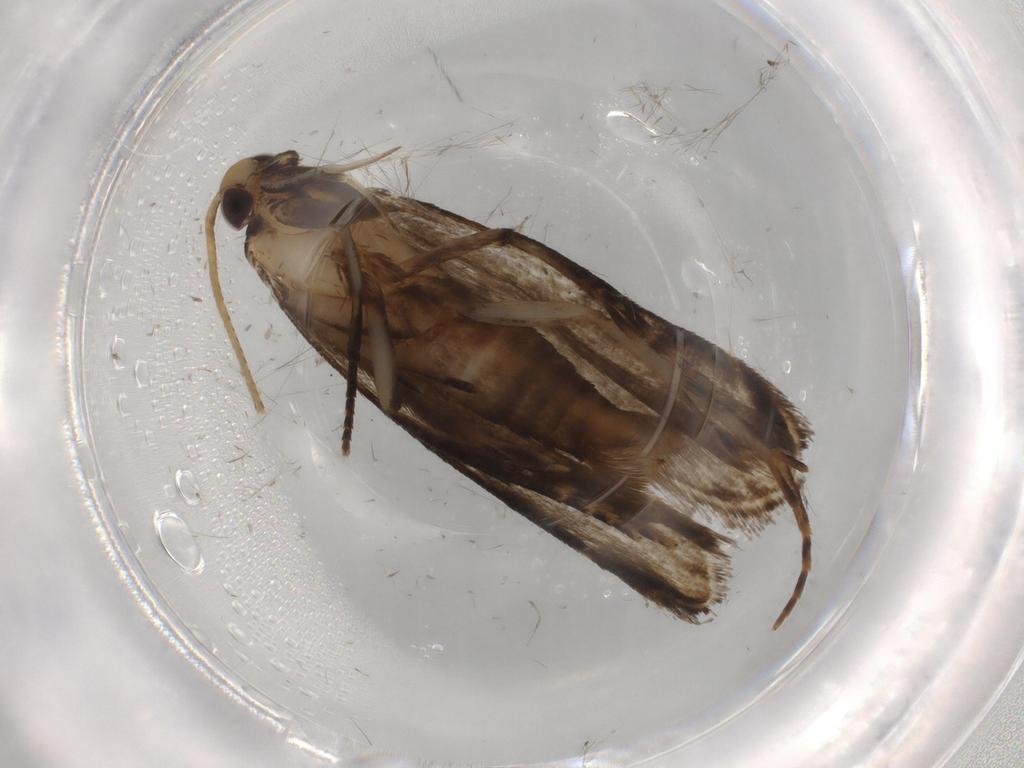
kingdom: Animalia
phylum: Arthropoda
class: Insecta
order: Lepidoptera
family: Gelechiidae
